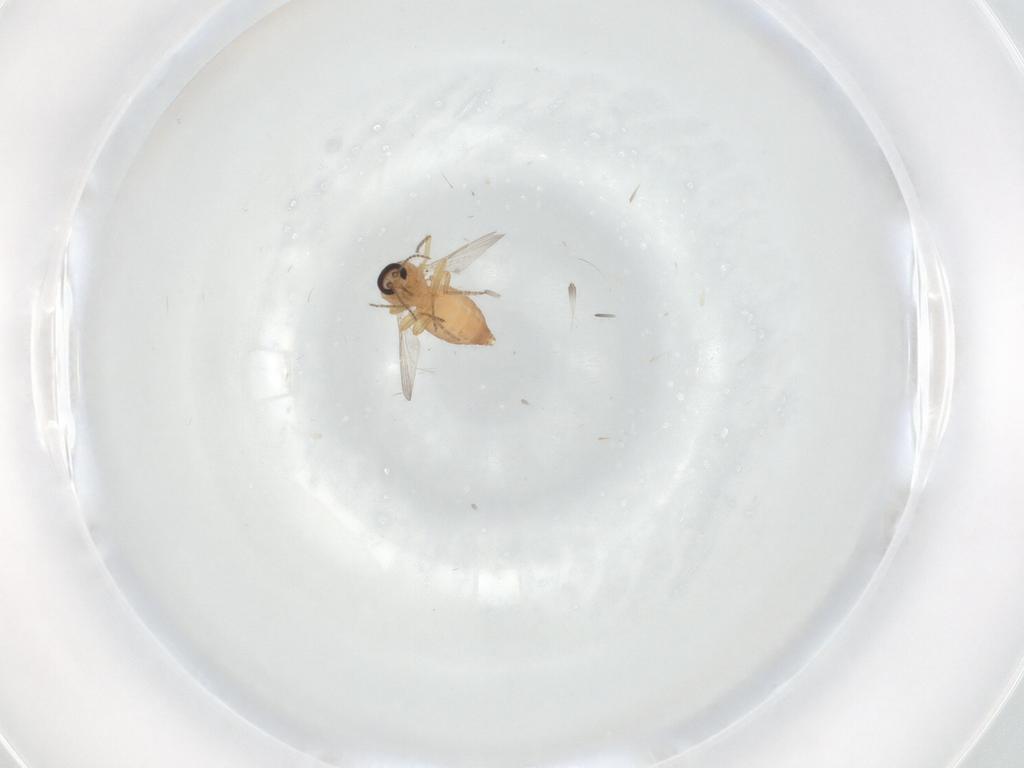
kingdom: Animalia
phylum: Arthropoda
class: Insecta
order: Diptera
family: Ceratopogonidae
